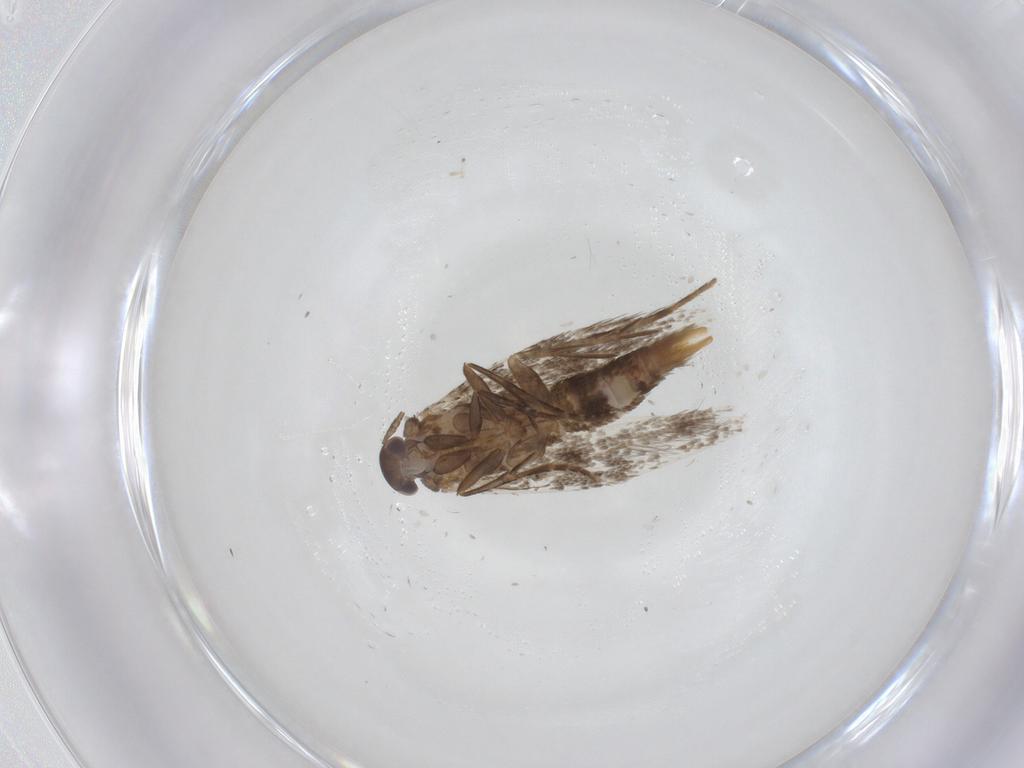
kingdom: Animalia
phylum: Arthropoda
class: Insecta
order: Lepidoptera
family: Elachistidae
